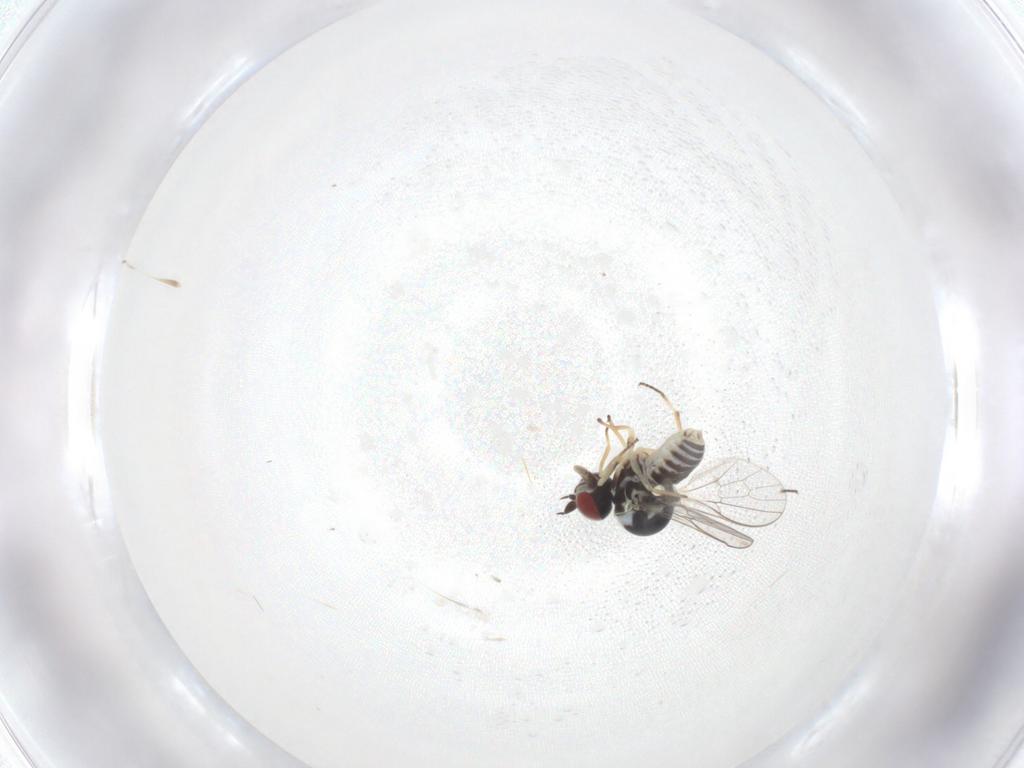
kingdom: Animalia
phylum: Arthropoda
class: Insecta
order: Diptera
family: Bombyliidae
